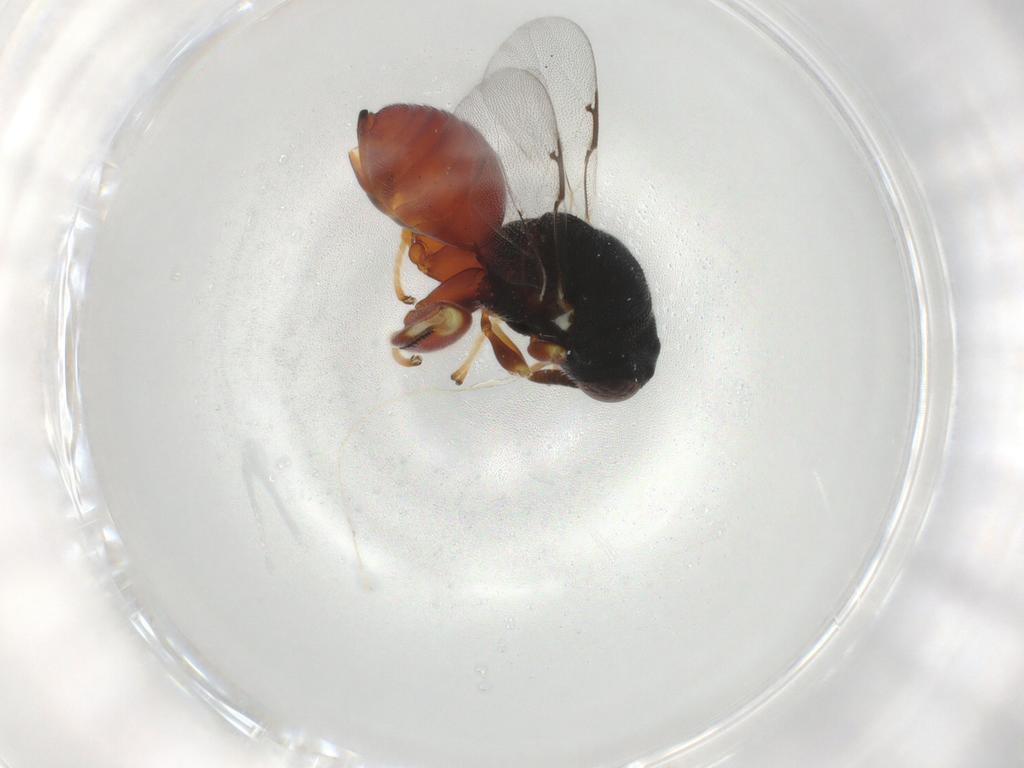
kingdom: Animalia
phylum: Arthropoda
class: Insecta
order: Hymenoptera
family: Chalcididae
